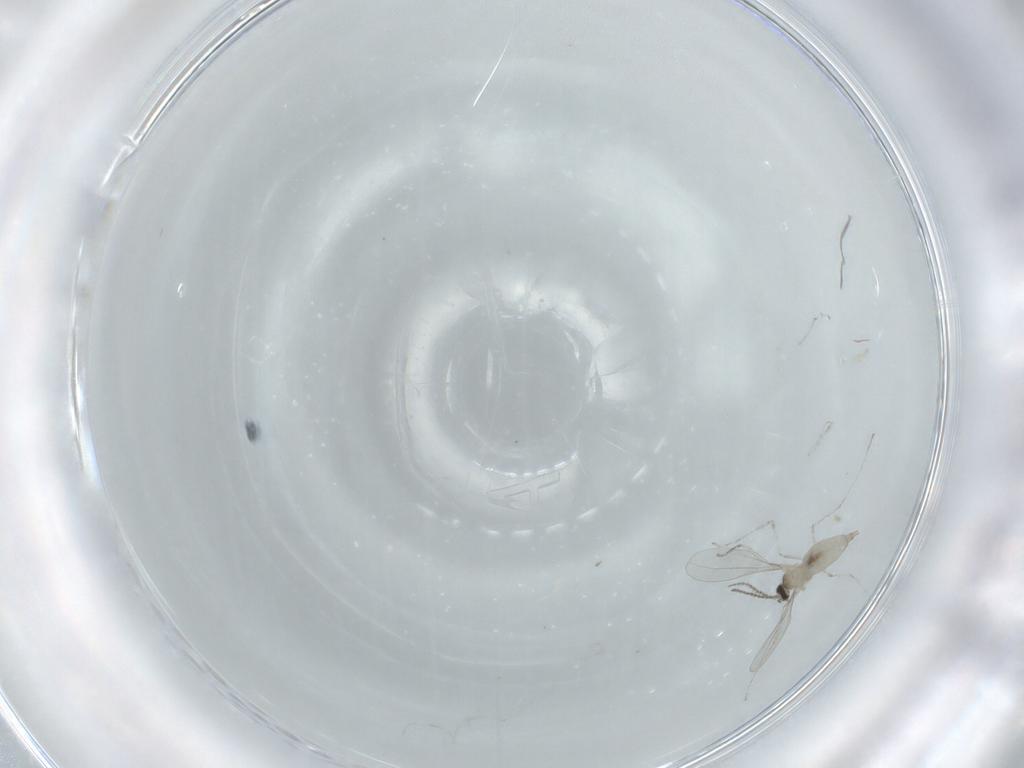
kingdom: Animalia
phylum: Arthropoda
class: Insecta
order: Diptera
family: Cecidomyiidae
